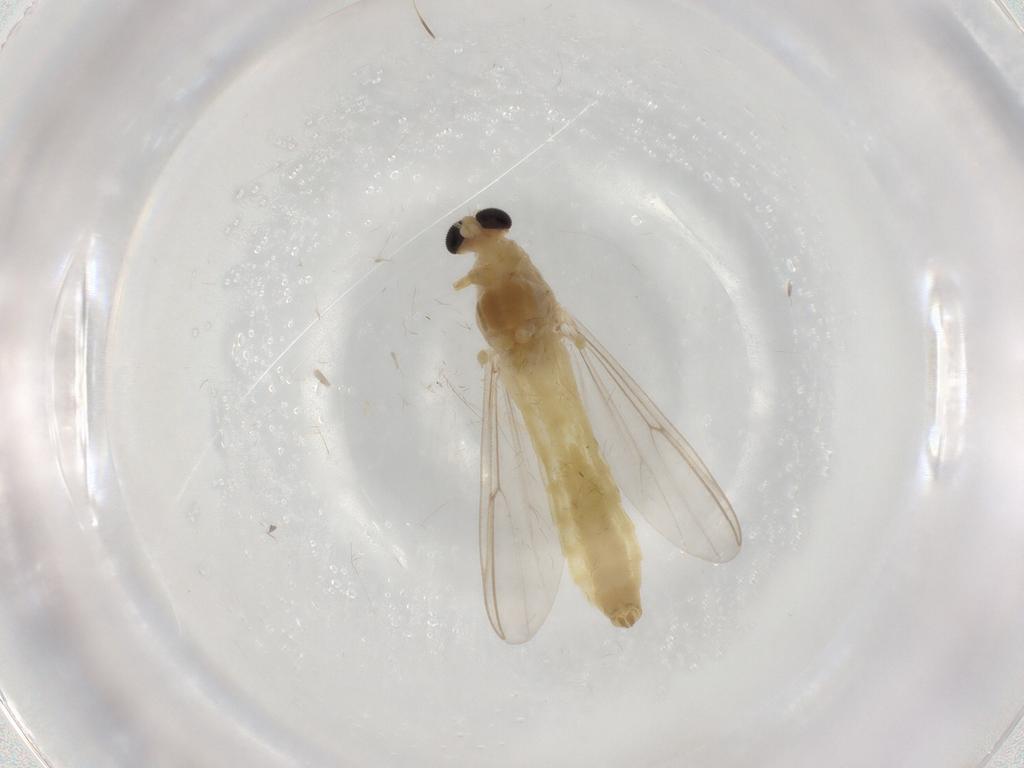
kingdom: Animalia
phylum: Arthropoda
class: Insecta
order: Diptera
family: Chironomidae
